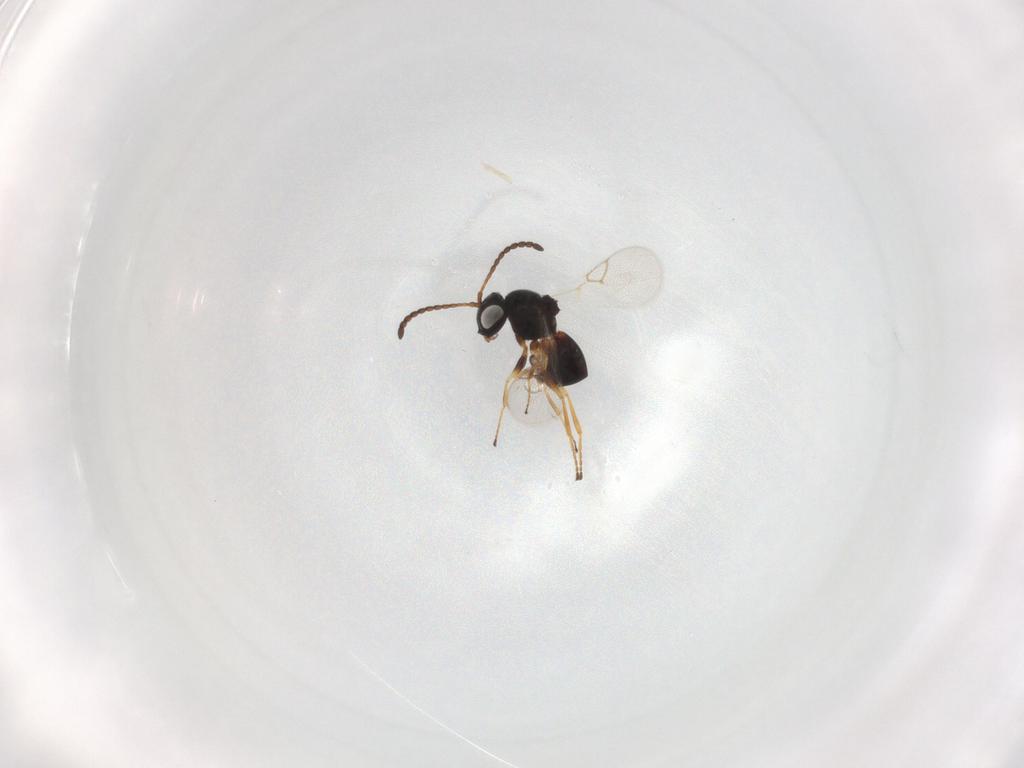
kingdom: Animalia
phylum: Arthropoda
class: Insecta
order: Hymenoptera
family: Figitidae
